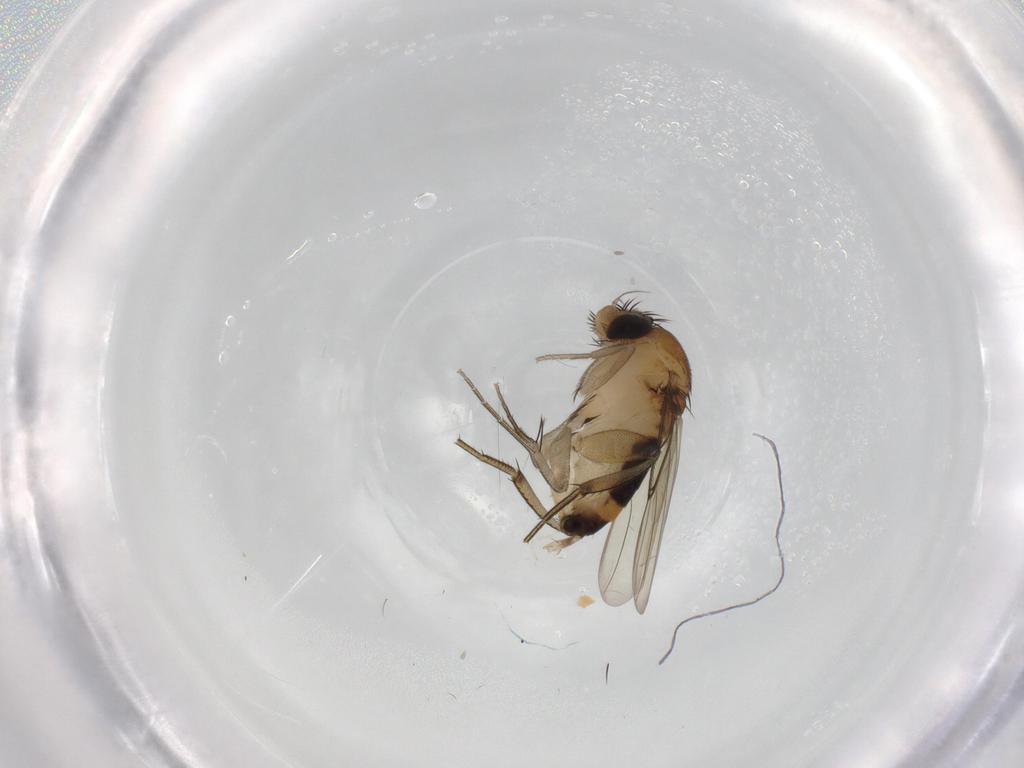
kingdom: Animalia
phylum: Arthropoda
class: Insecta
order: Diptera
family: Phoridae
